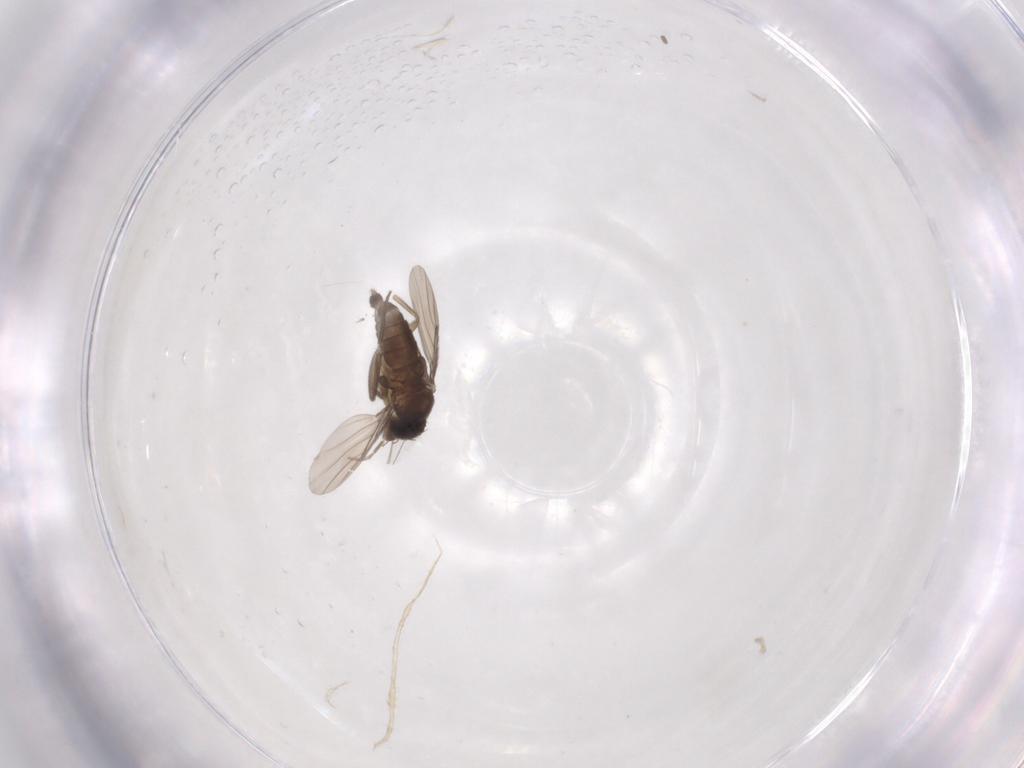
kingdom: Animalia
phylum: Arthropoda
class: Insecta
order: Diptera
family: Phoridae
